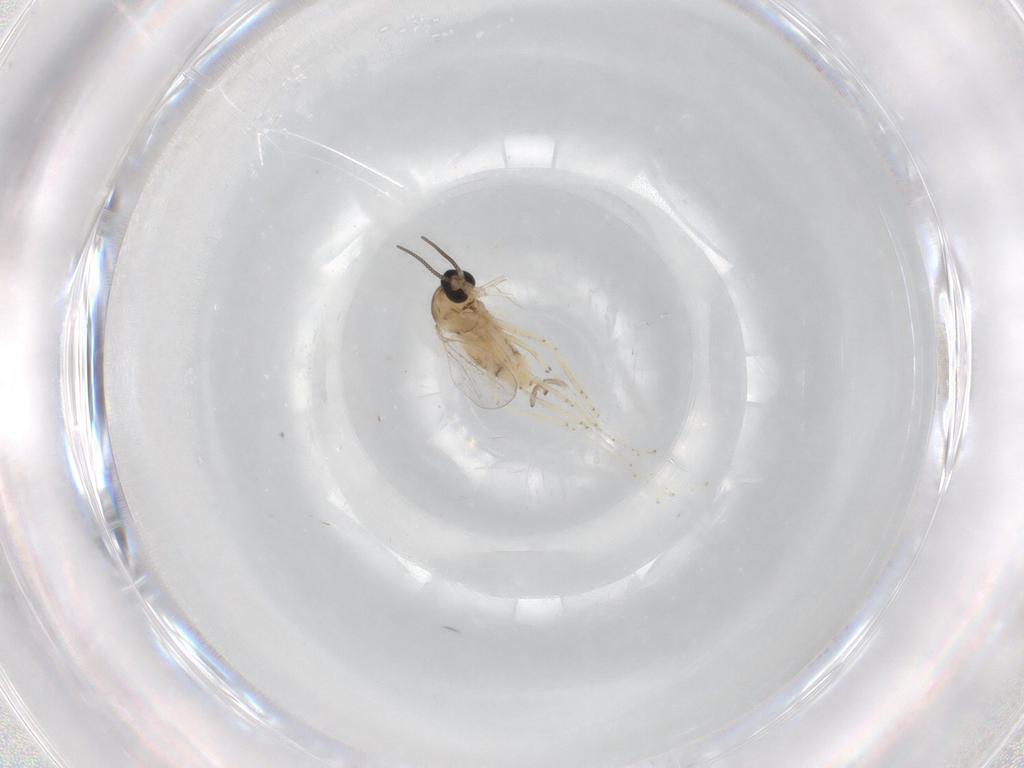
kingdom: Animalia
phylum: Arthropoda
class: Insecta
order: Diptera
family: Cecidomyiidae
